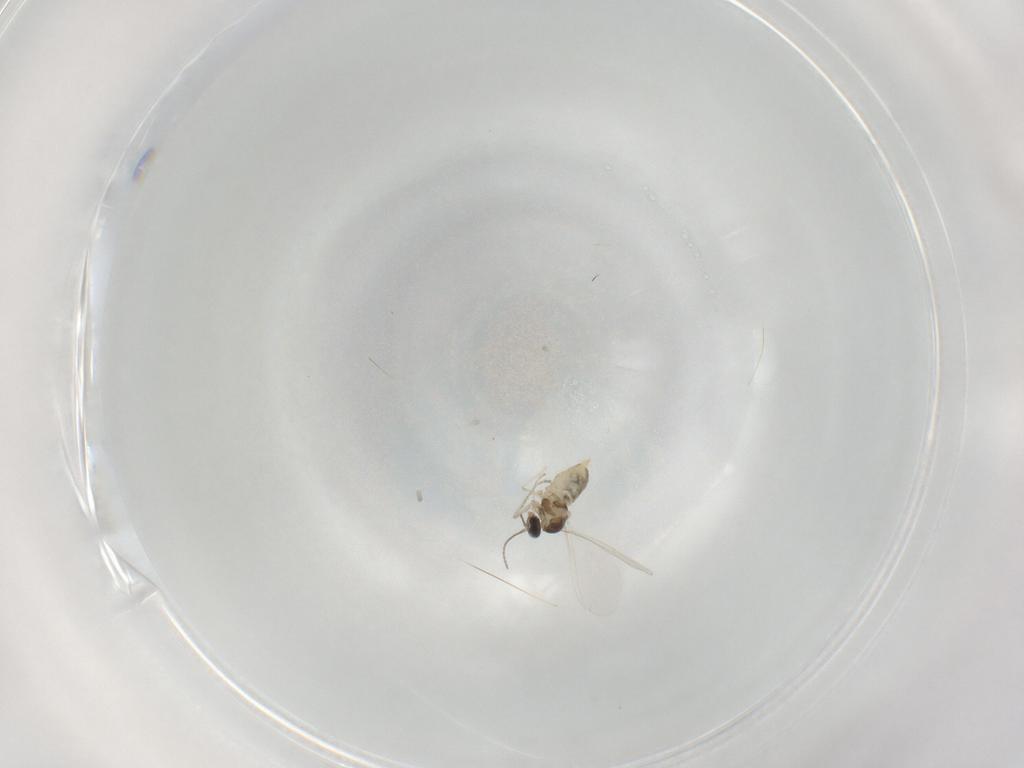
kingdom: Animalia
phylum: Arthropoda
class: Insecta
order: Diptera
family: Cecidomyiidae
